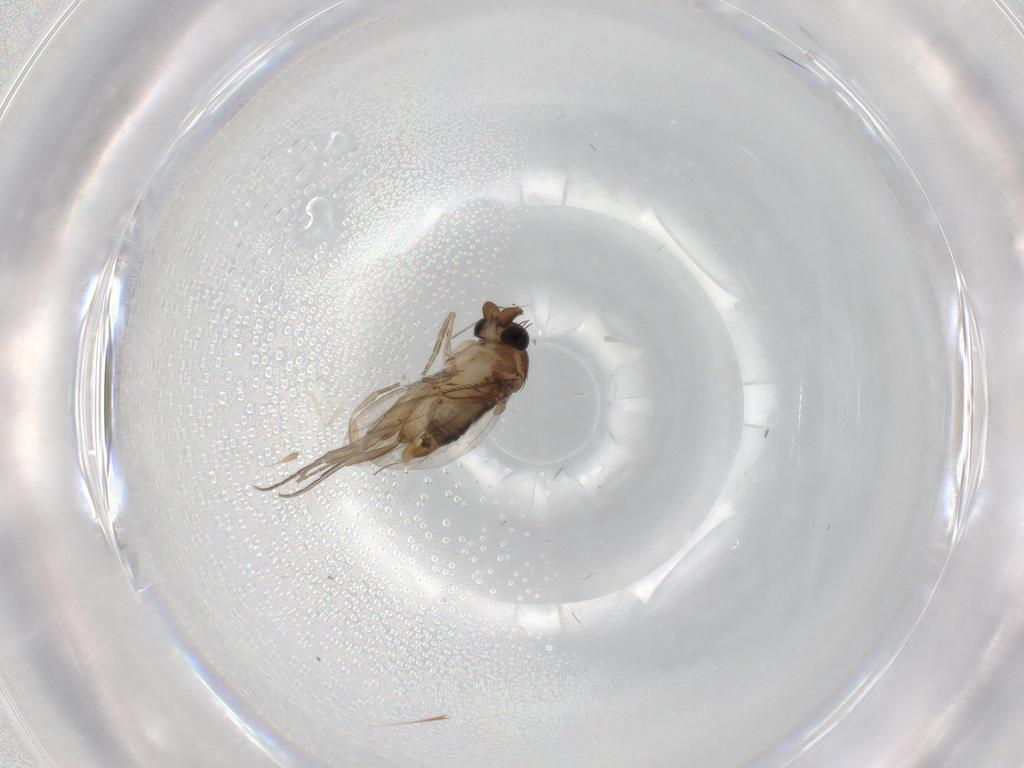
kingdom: Animalia
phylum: Arthropoda
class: Insecta
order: Diptera
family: Phoridae
